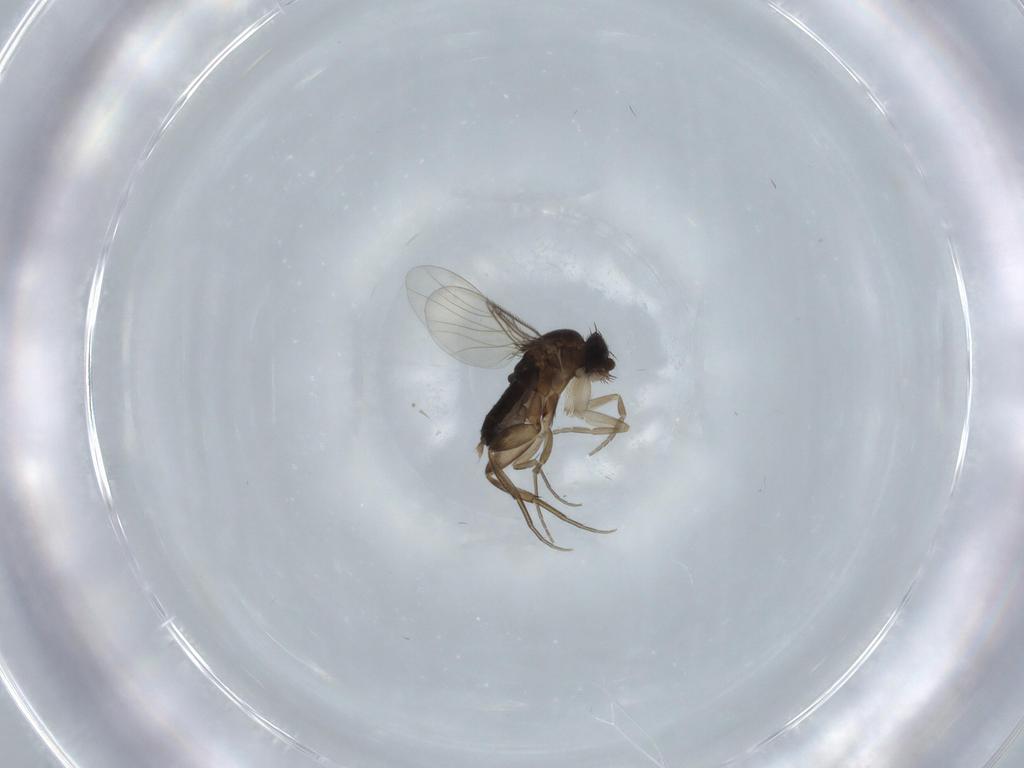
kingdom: Animalia
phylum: Arthropoda
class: Insecta
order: Diptera
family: Phoridae
